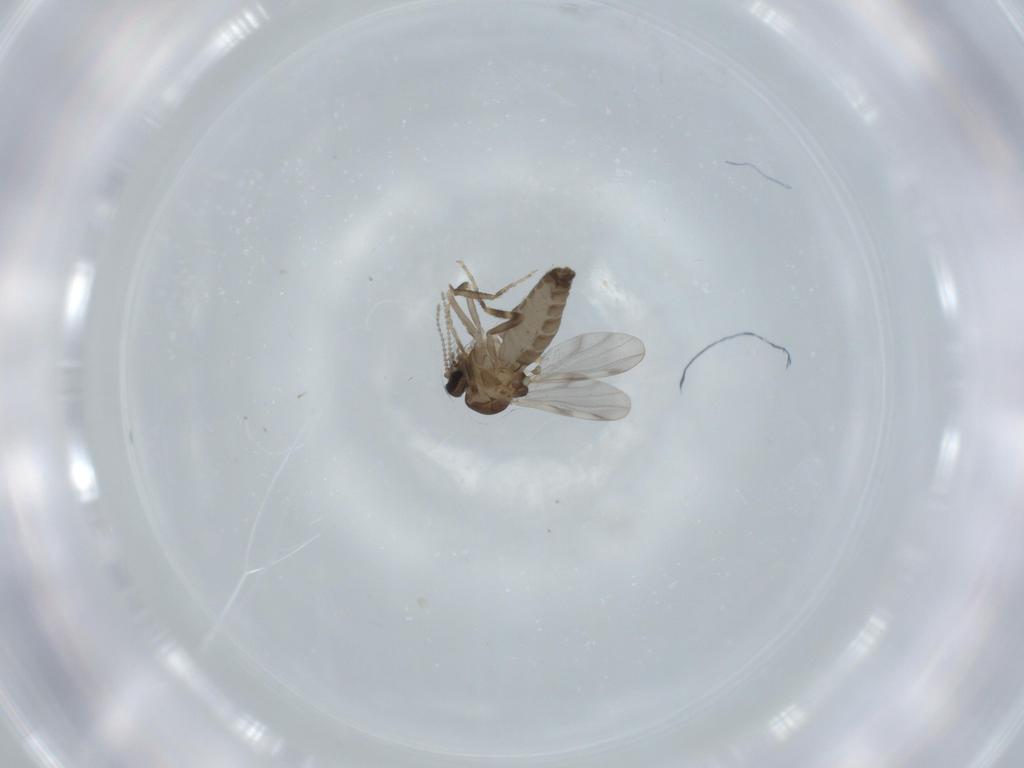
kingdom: Animalia
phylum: Arthropoda
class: Insecta
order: Diptera
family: Ceratopogonidae
